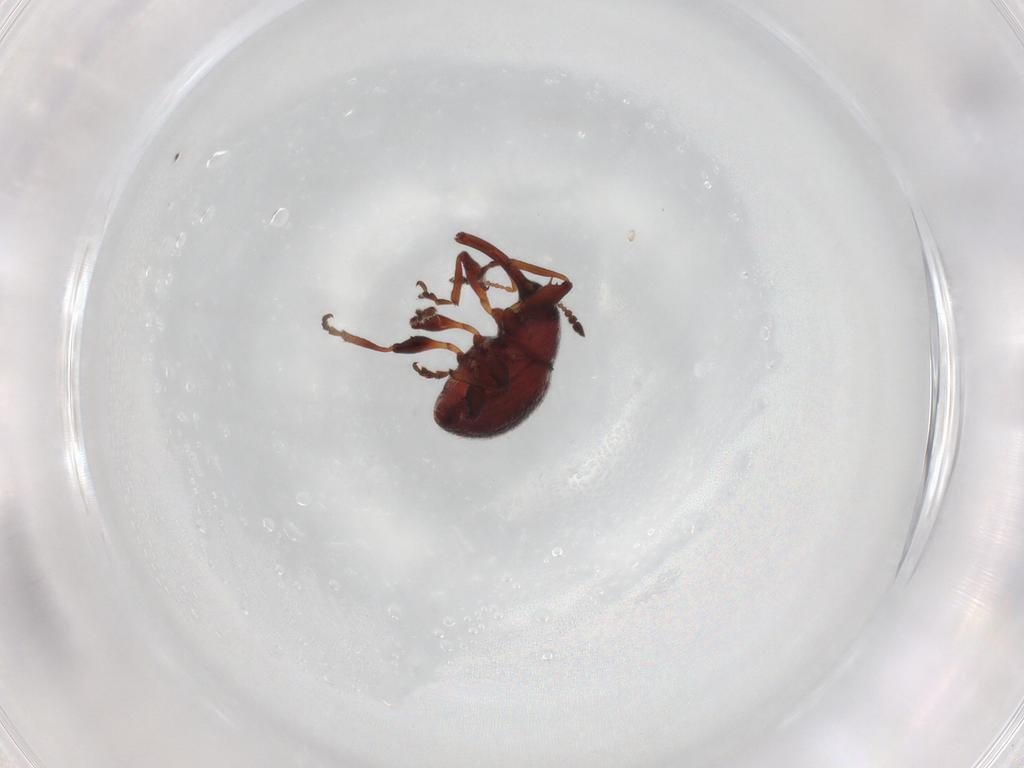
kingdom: Animalia
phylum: Arthropoda
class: Insecta
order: Coleoptera
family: Brentidae
